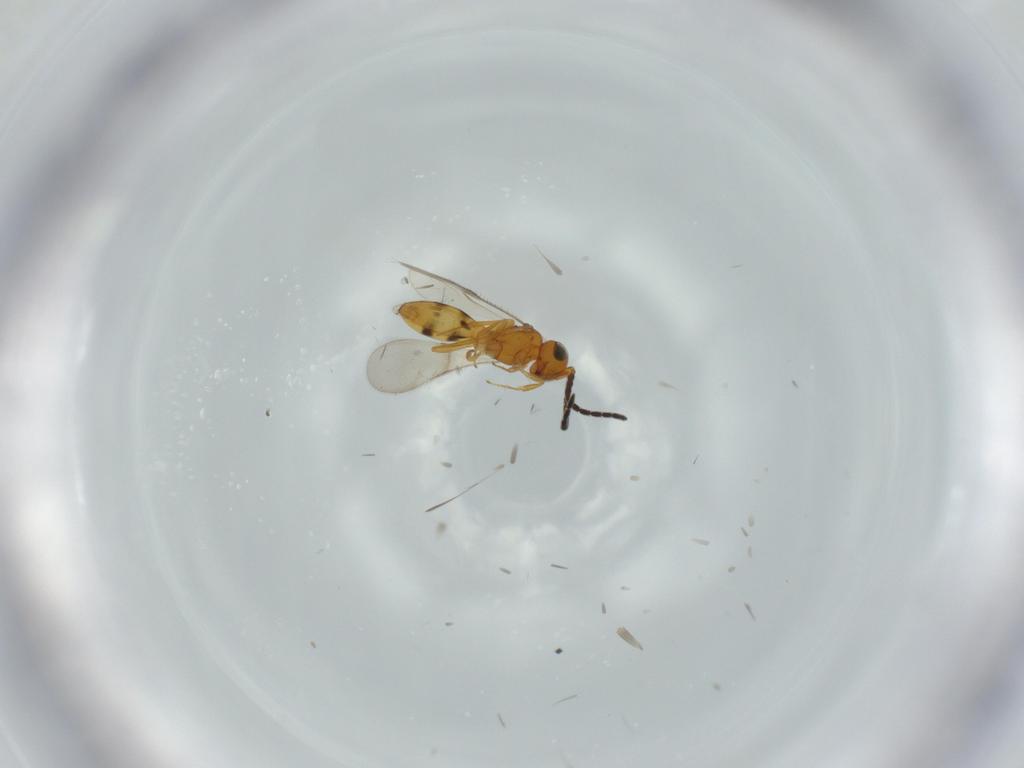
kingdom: Animalia
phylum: Arthropoda
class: Insecta
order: Hymenoptera
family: Scelionidae
